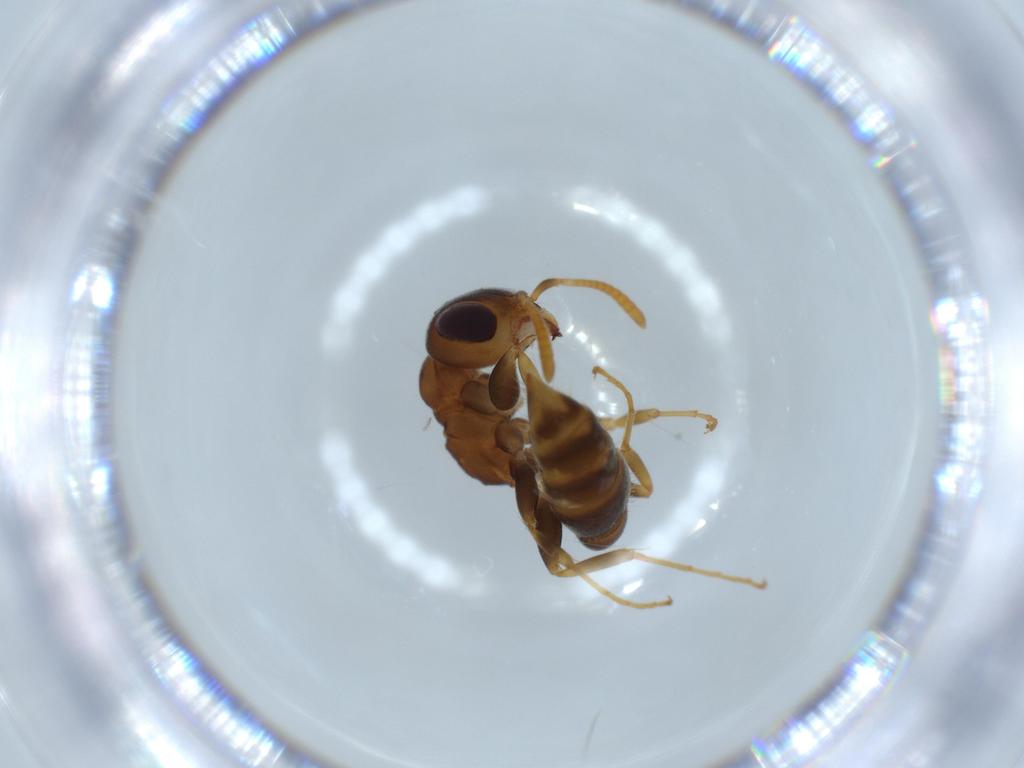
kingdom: Animalia
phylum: Arthropoda
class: Insecta
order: Hymenoptera
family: Formicidae
